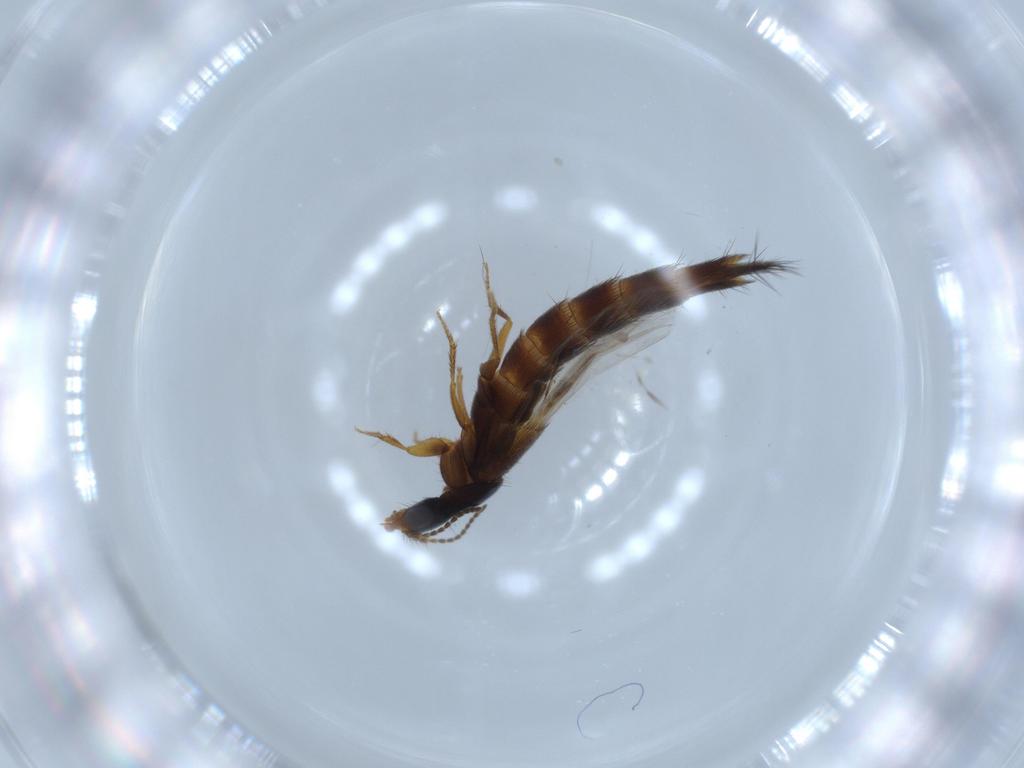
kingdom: Animalia
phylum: Arthropoda
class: Insecta
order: Coleoptera
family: Staphylinidae
